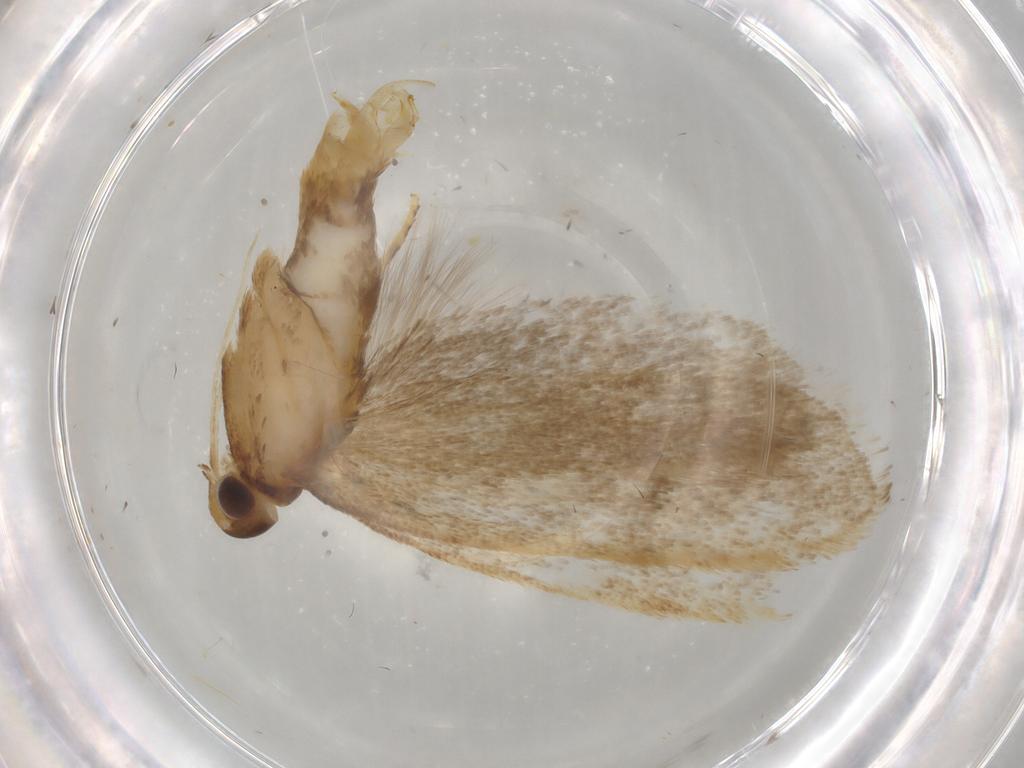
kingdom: Animalia
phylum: Arthropoda
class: Insecta
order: Lepidoptera
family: Lecithoceridae
